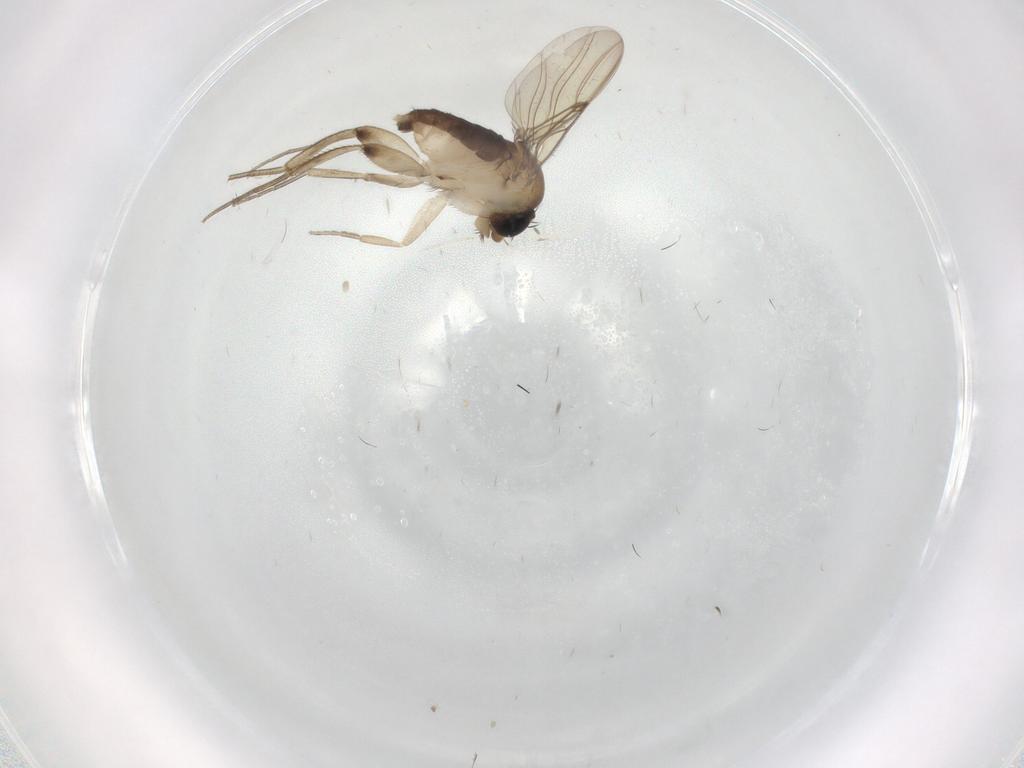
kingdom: Animalia
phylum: Arthropoda
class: Insecta
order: Diptera
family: Phoridae
